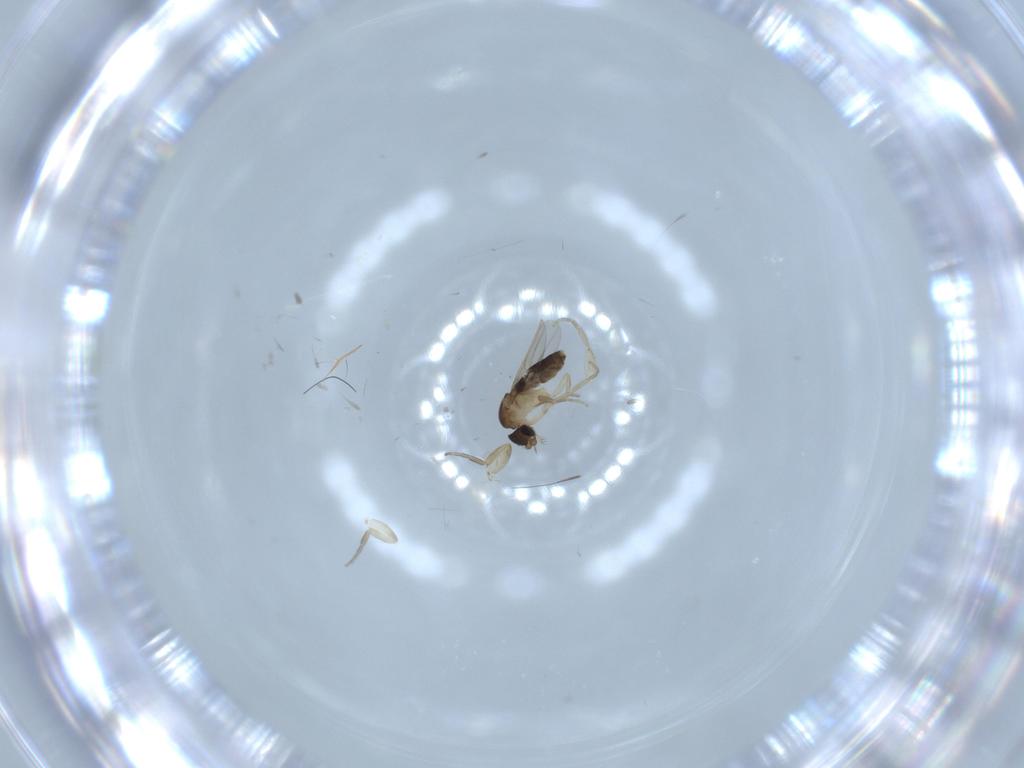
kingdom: Animalia
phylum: Arthropoda
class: Insecta
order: Diptera
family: Phoridae
